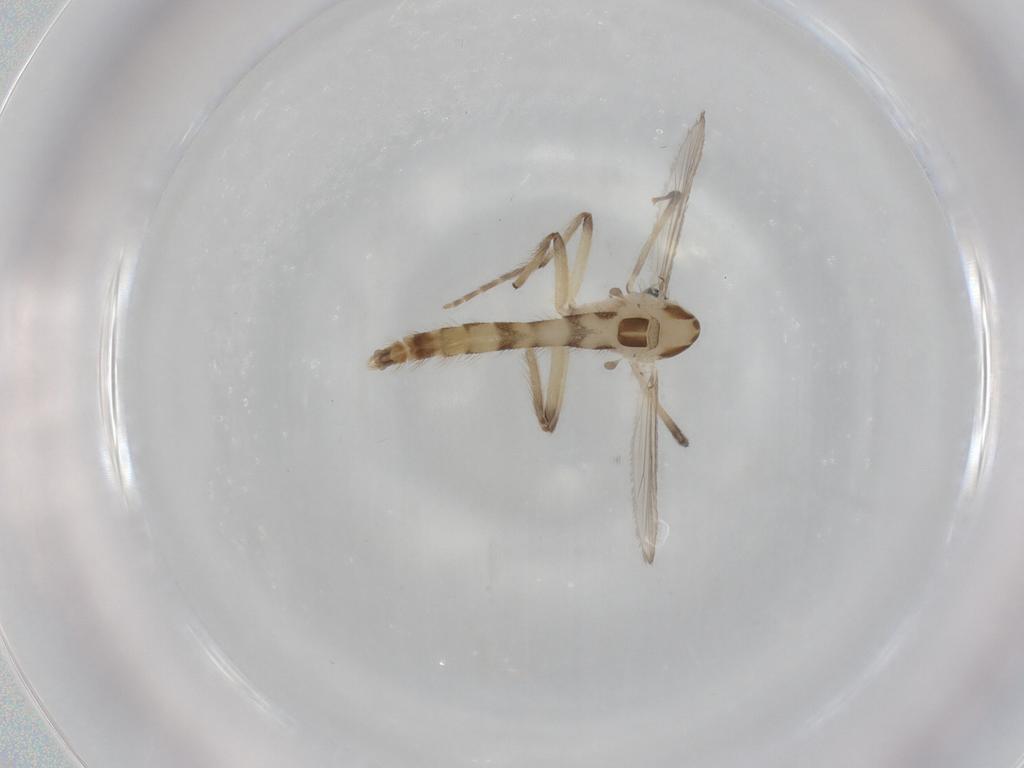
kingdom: Animalia
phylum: Arthropoda
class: Insecta
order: Diptera
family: Chironomidae
